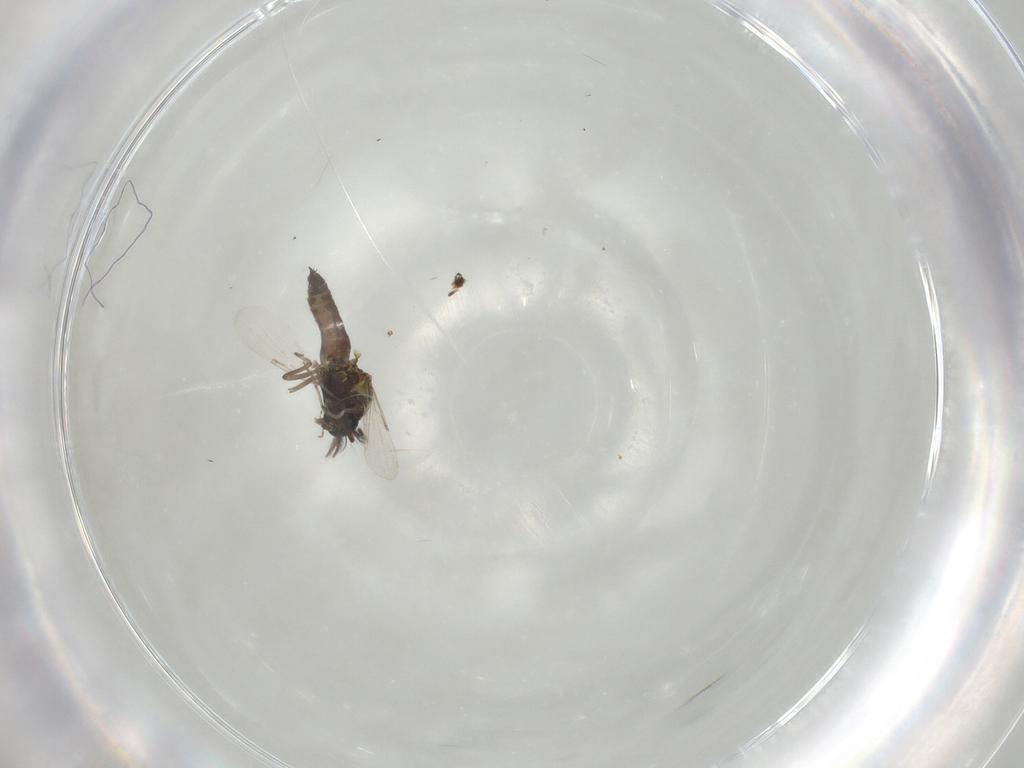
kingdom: Animalia
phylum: Arthropoda
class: Insecta
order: Diptera
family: Ceratopogonidae
